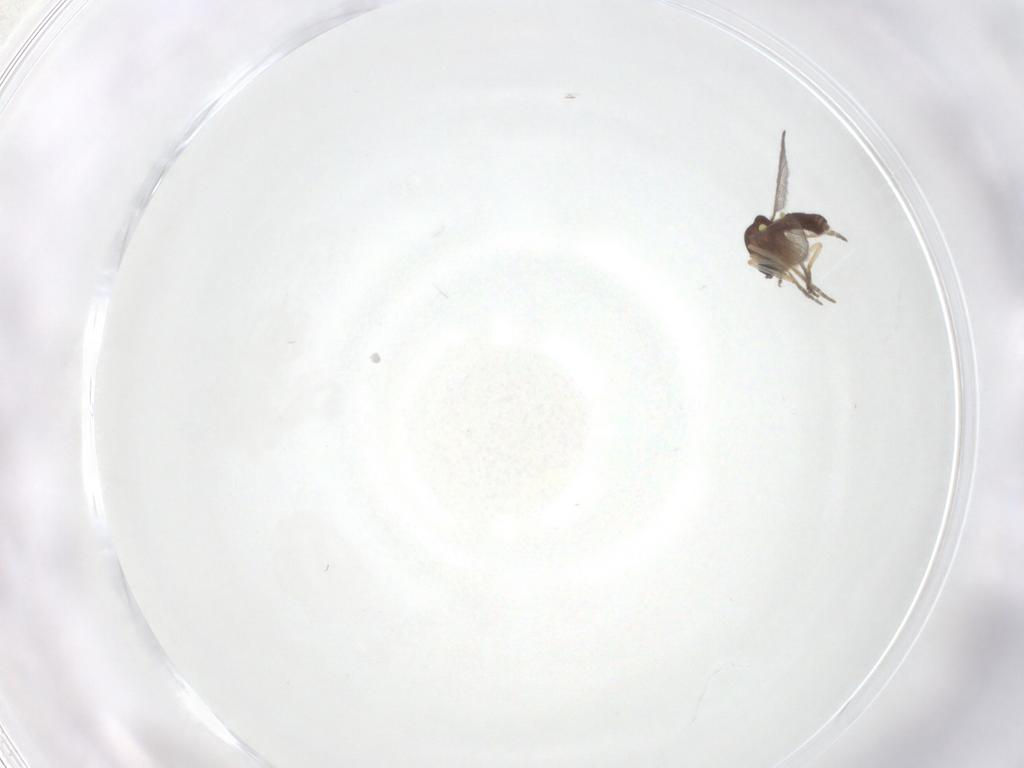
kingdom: Animalia
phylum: Arthropoda
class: Insecta
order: Diptera
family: Ceratopogonidae
